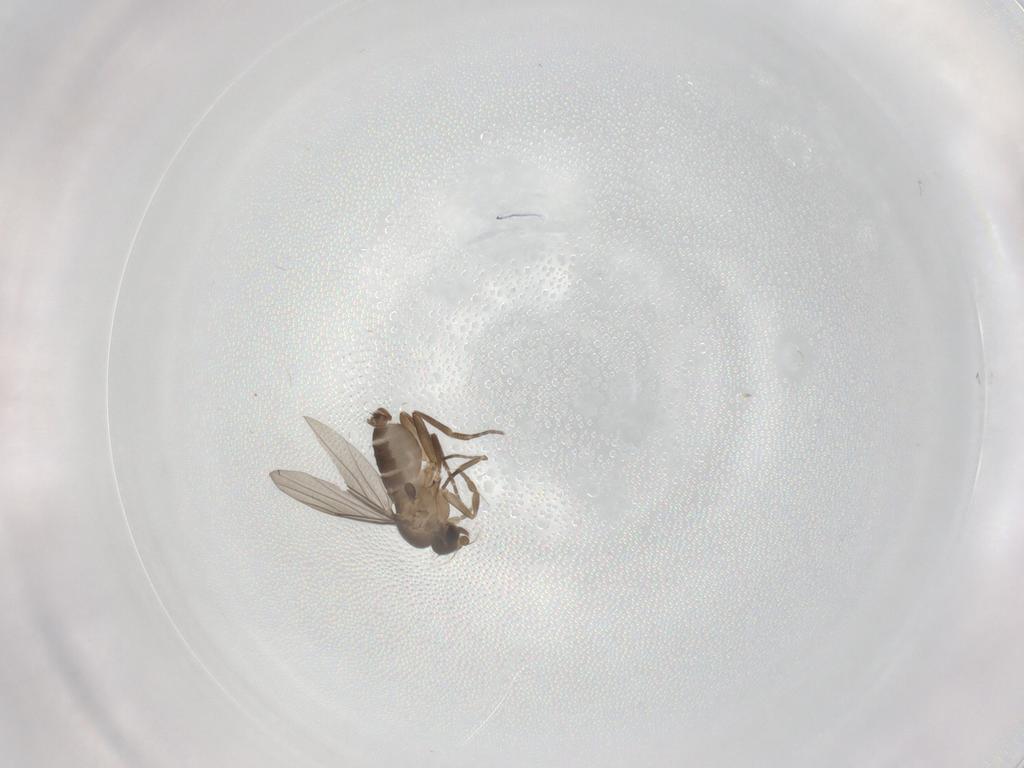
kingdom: Animalia
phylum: Arthropoda
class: Insecta
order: Diptera
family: Phoridae
